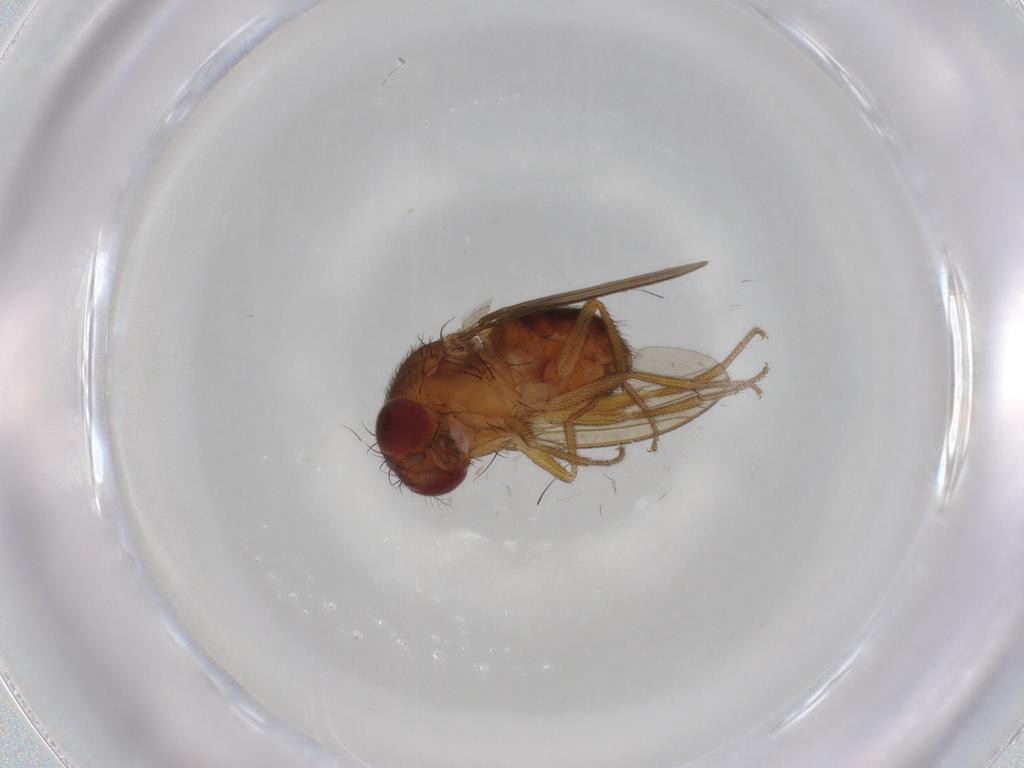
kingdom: Animalia
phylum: Arthropoda
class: Insecta
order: Diptera
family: Drosophilidae
